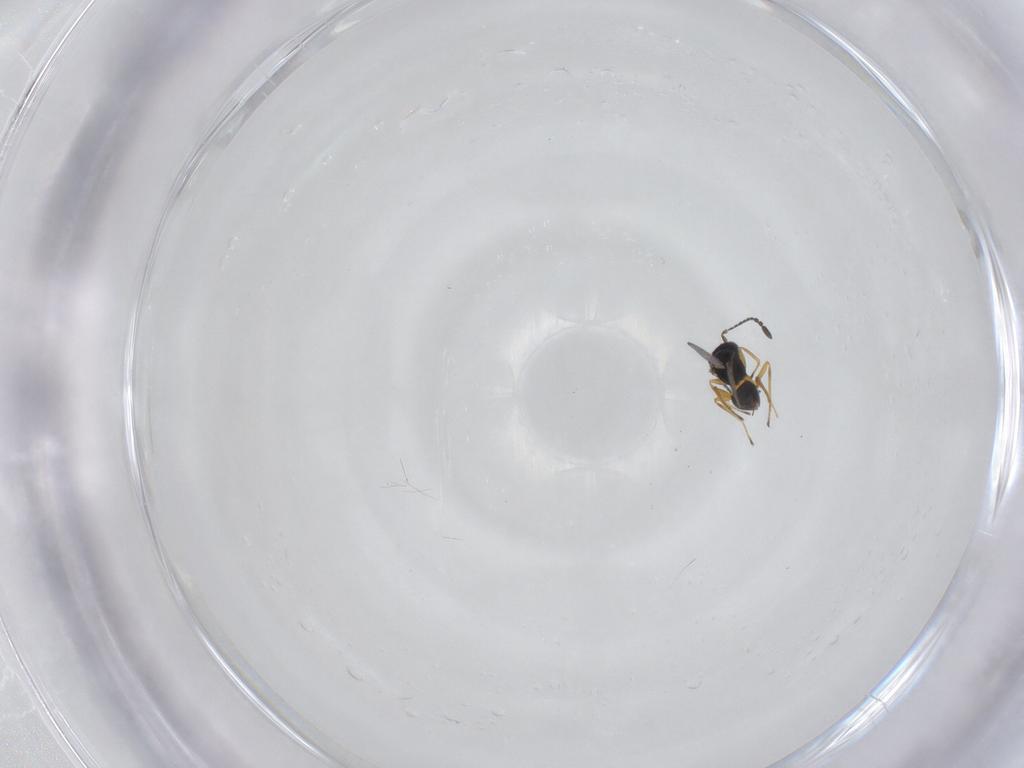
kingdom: Animalia
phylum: Arthropoda
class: Insecta
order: Hymenoptera
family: Mymaridae
